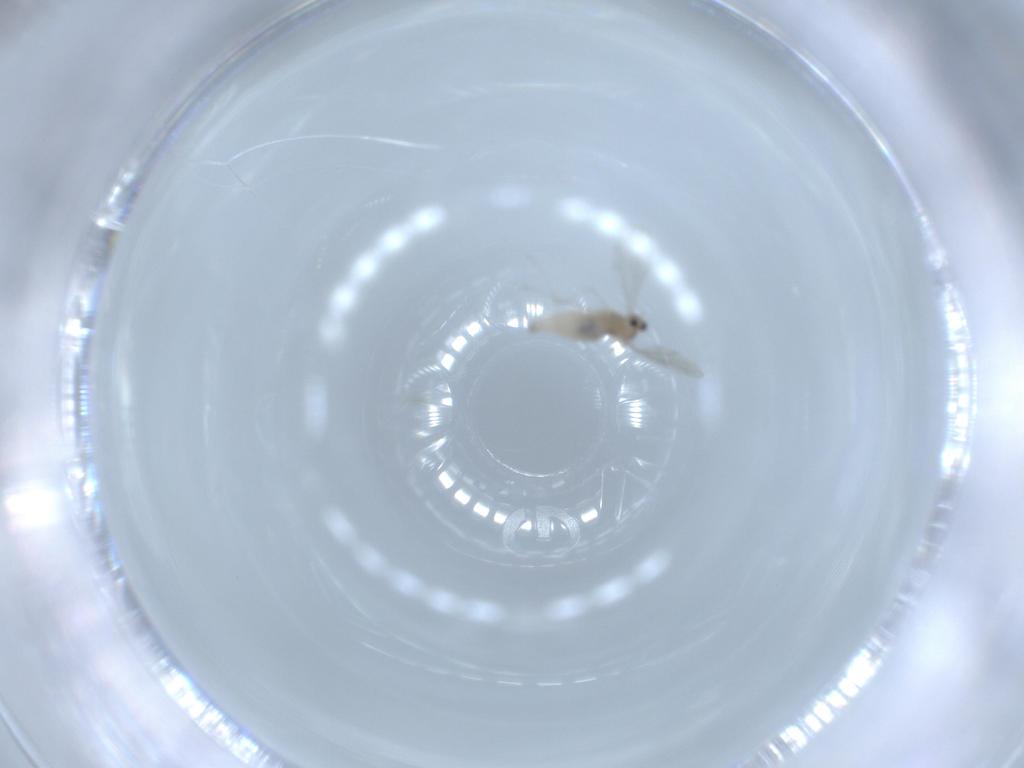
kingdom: Animalia
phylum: Arthropoda
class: Insecta
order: Diptera
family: Cecidomyiidae
